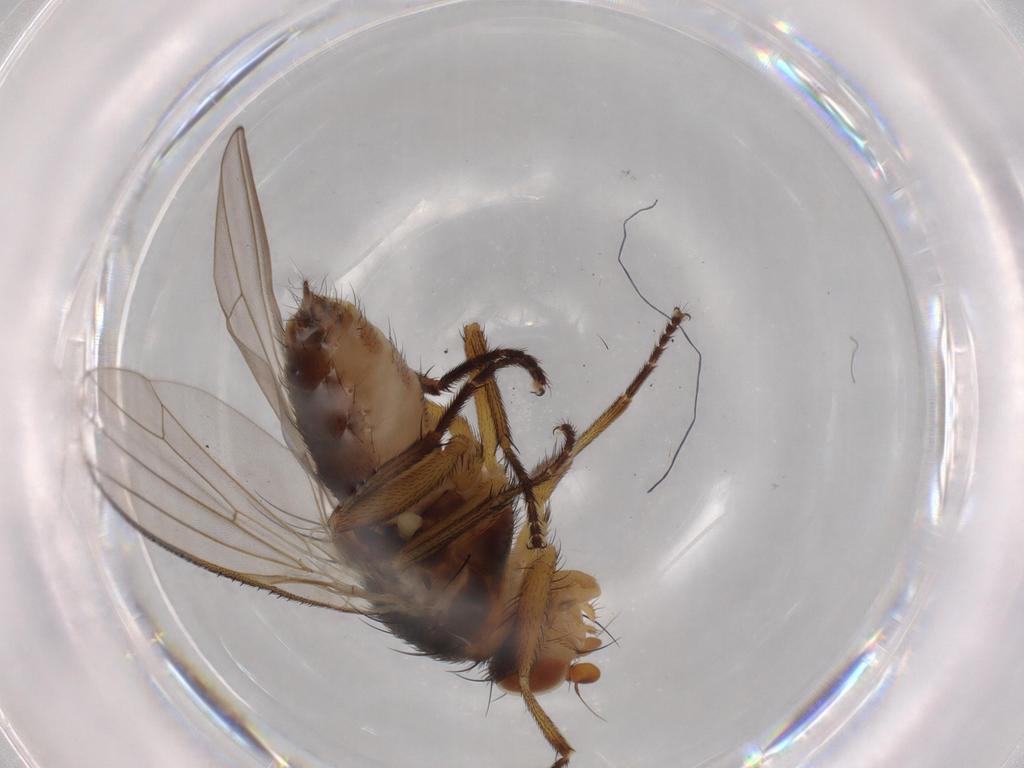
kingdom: Animalia
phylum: Arthropoda
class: Insecta
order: Diptera
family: Heleomyzidae
